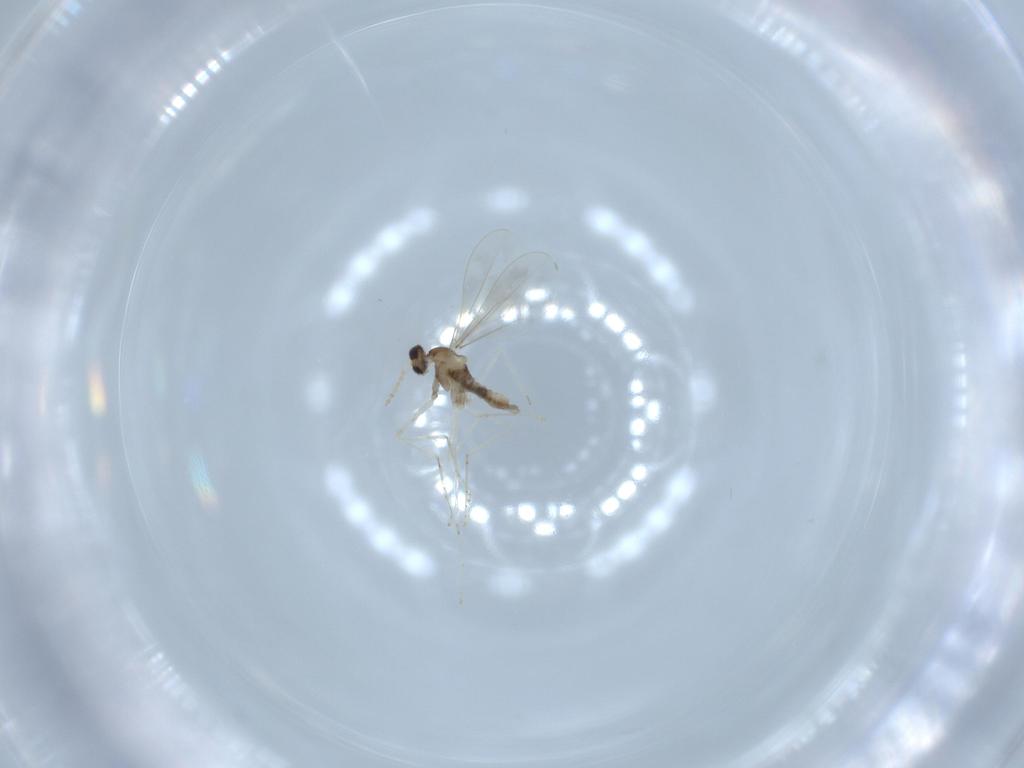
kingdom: Animalia
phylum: Arthropoda
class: Insecta
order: Diptera
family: Cecidomyiidae
